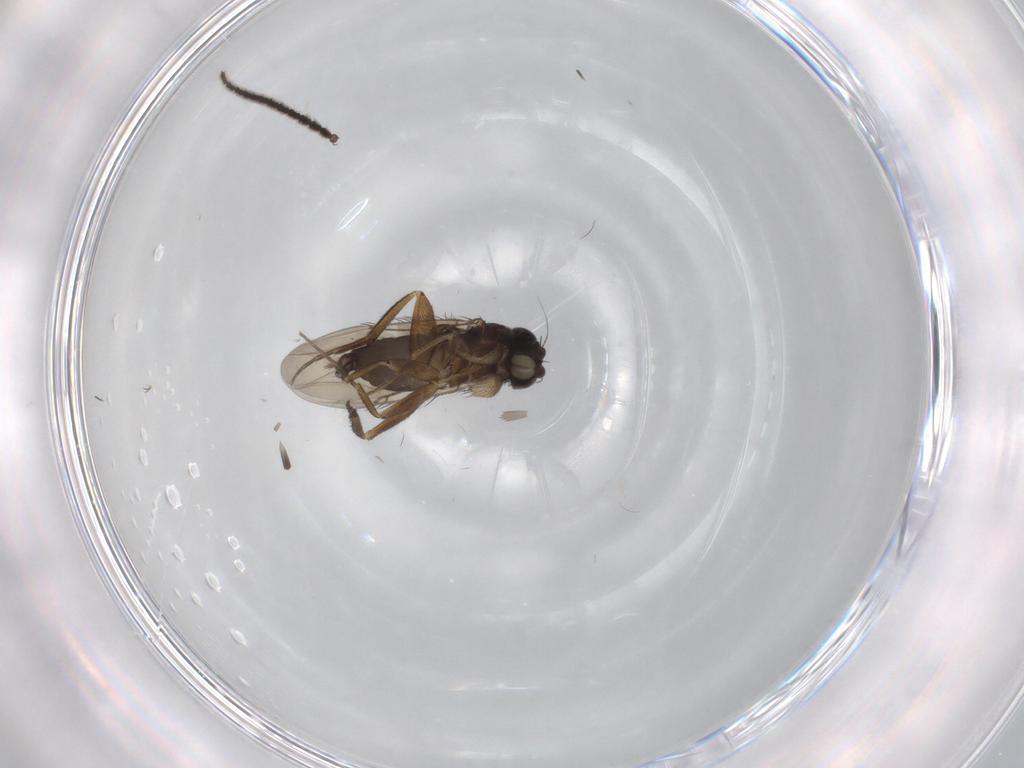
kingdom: Animalia
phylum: Arthropoda
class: Insecta
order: Diptera
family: Phoridae
